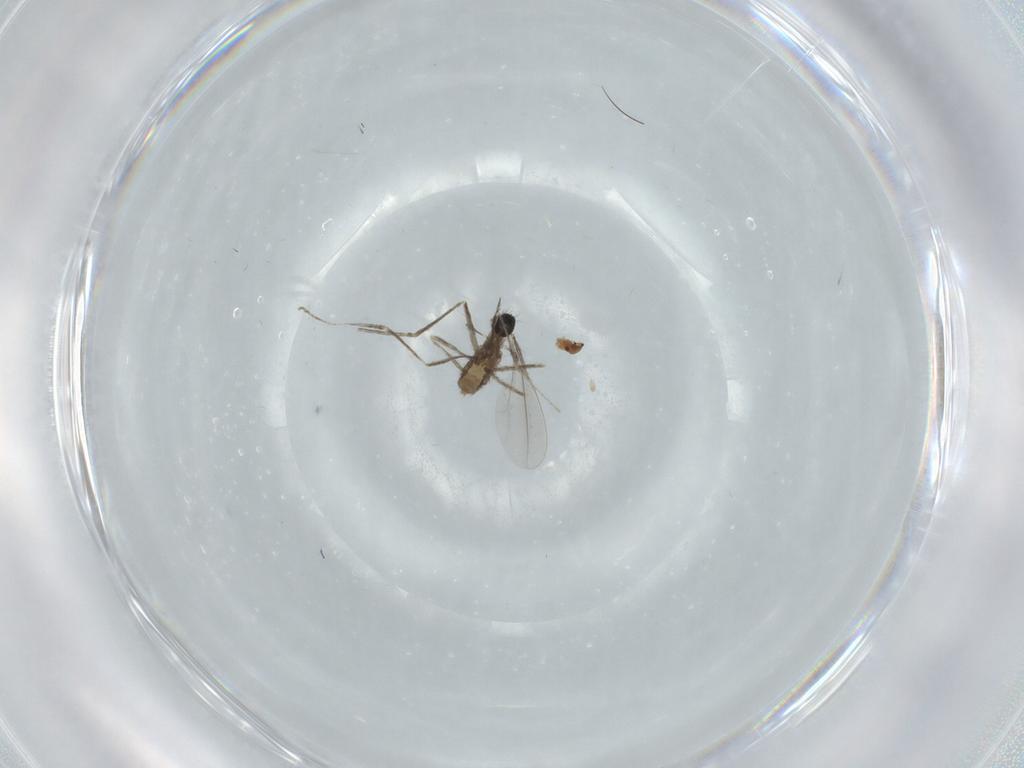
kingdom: Animalia
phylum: Arthropoda
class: Insecta
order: Diptera
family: Cecidomyiidae
